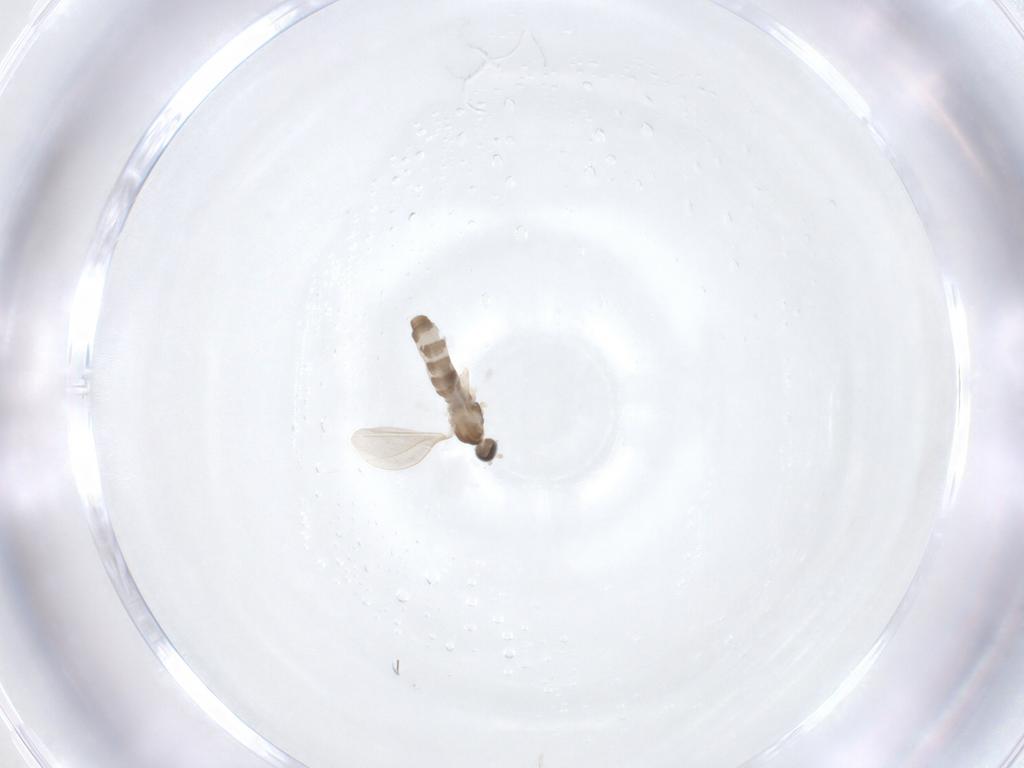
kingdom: Animalia
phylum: Arthropoda
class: Insecta
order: Diptera
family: Cecidomyiidae
